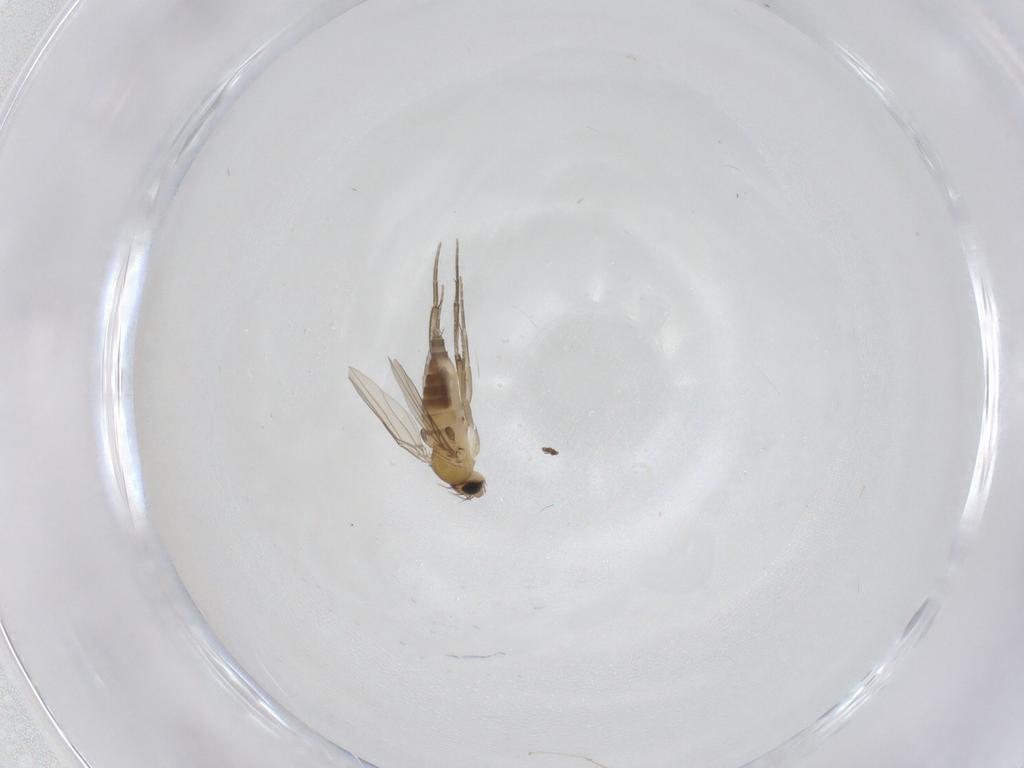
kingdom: Animalia
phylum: Arthropoda
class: Insecta
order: Diptera
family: Phoridae
